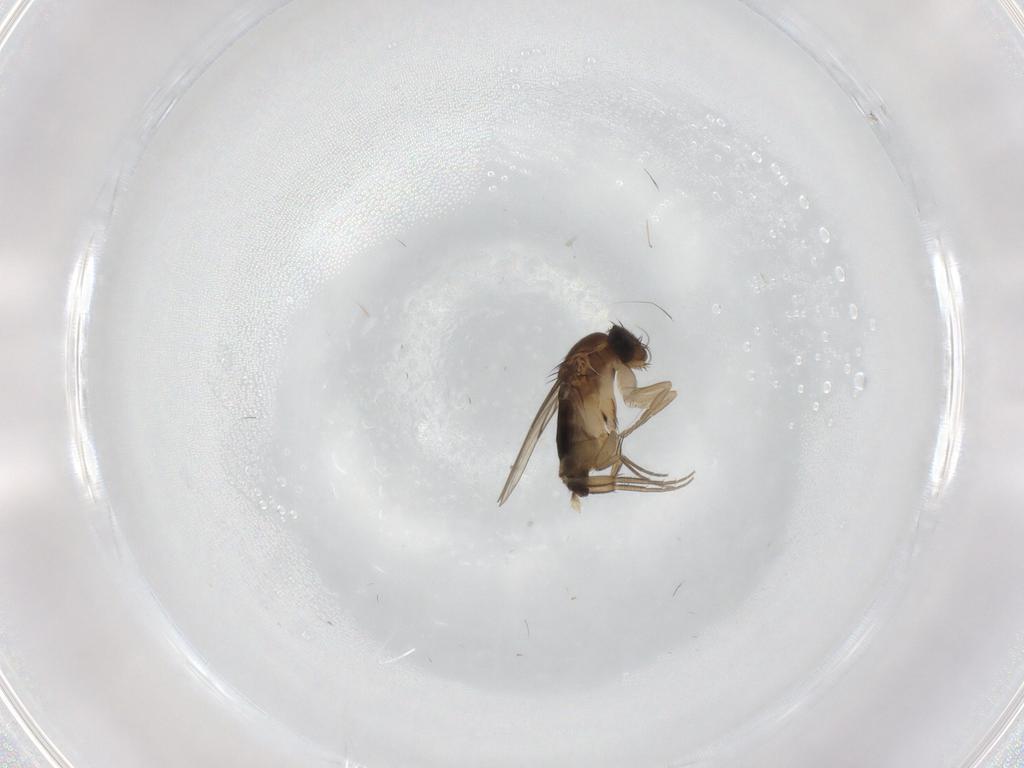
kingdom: Animalia
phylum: Arthropoda
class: Insecta
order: Diptera
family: Phoridae
